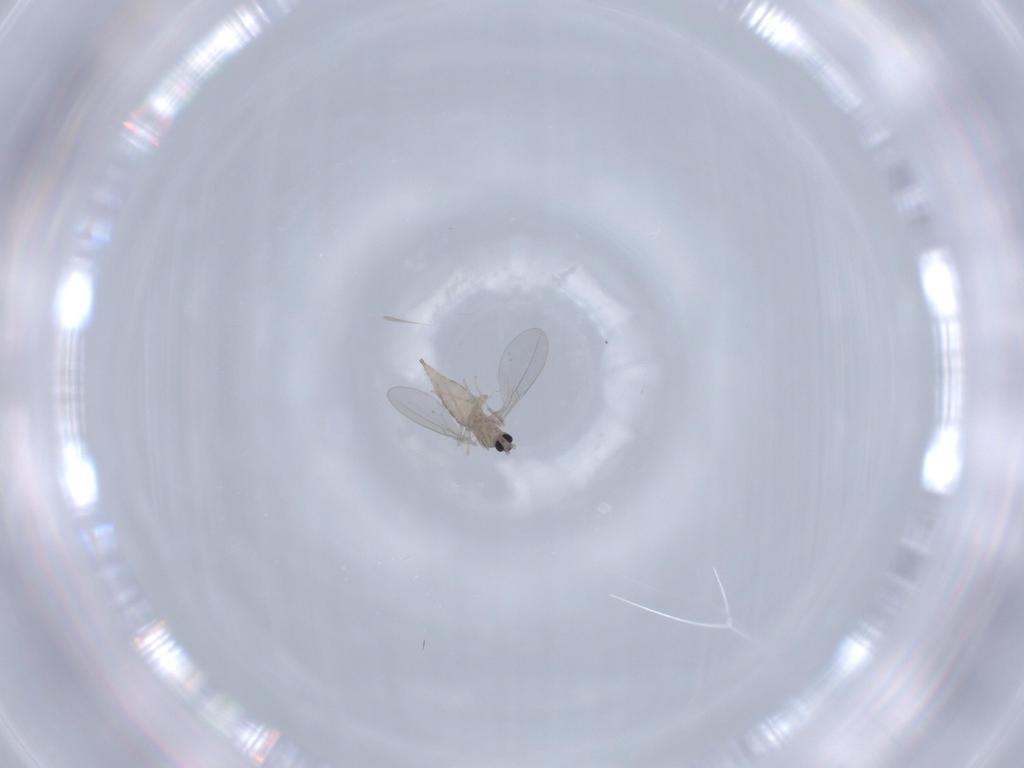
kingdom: Animalia
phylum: Arthropoda
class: Insecta
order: Diptera
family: Cecidomyiidae
